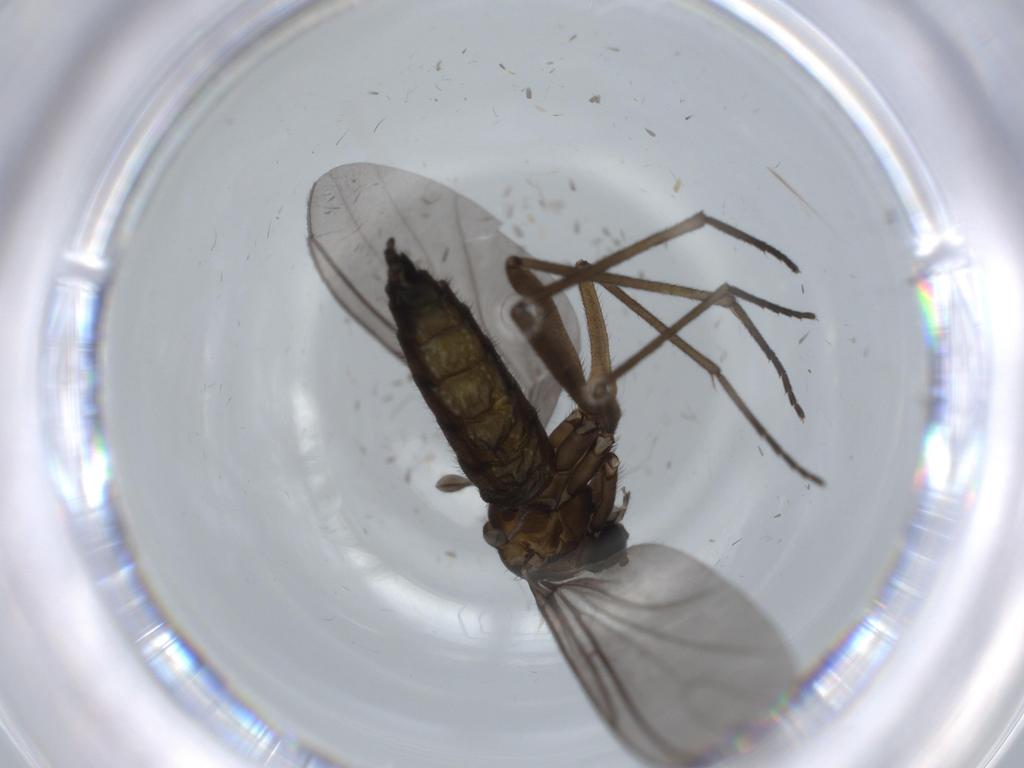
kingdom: Animalia
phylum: Arthropoda
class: Insecta
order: Diptera
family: Sciaridae
